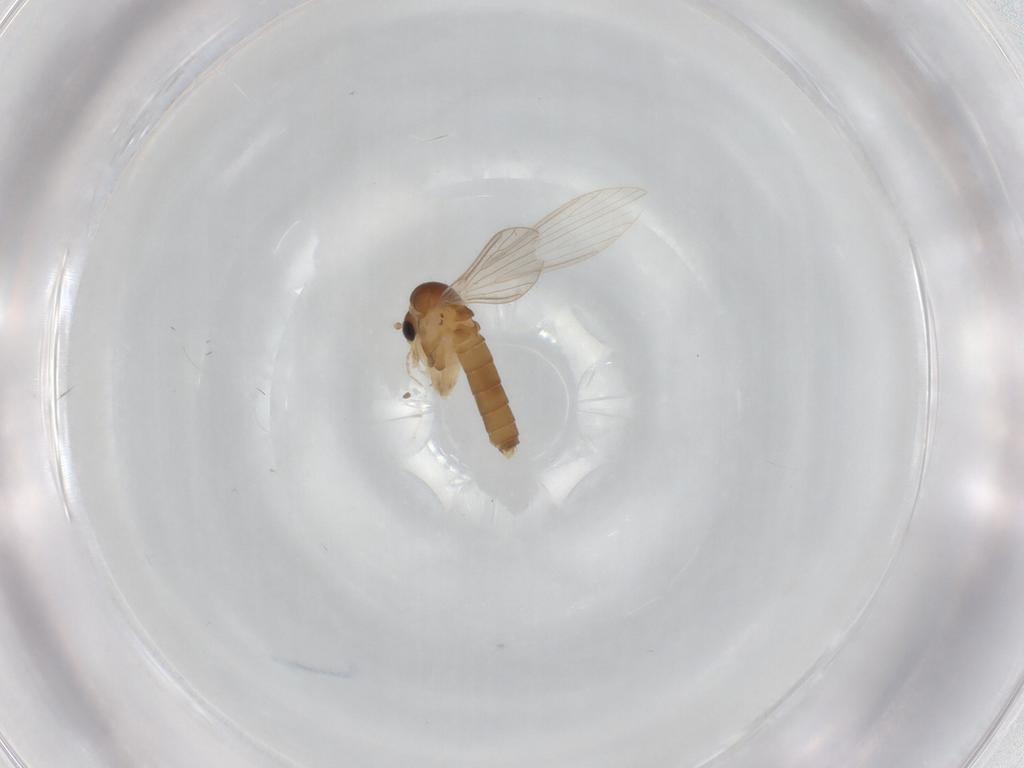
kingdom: Animalia
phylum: Arthropoda
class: Insecta
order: Diptera
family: Psychodidae
